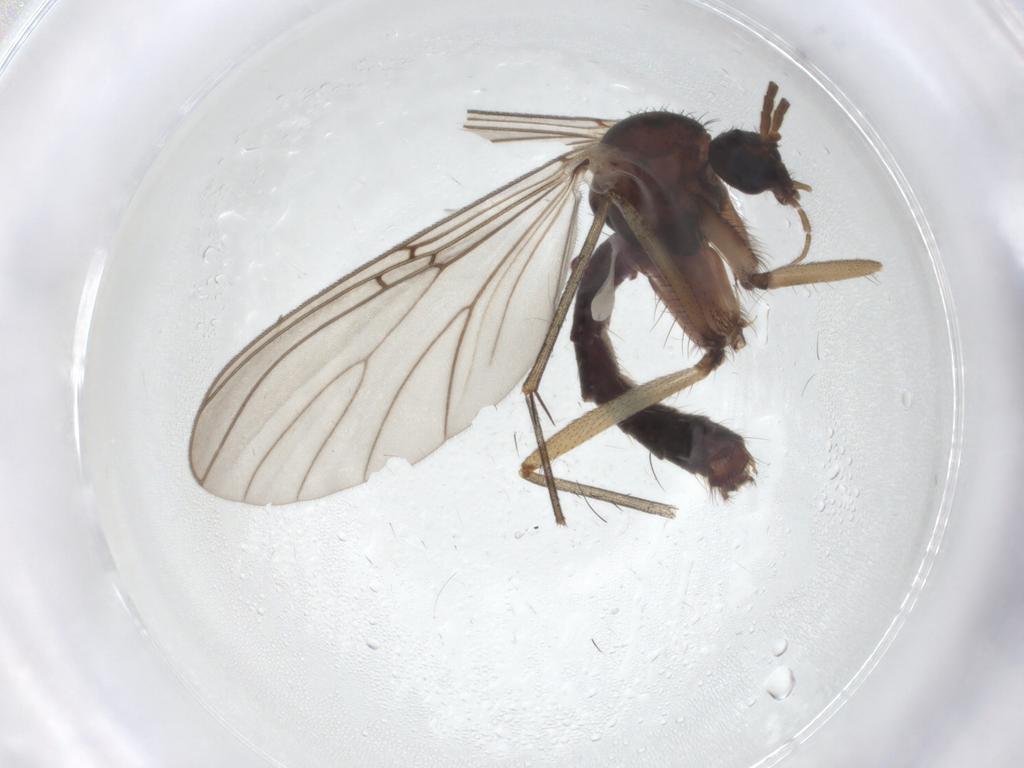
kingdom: Animalia
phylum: Arthropoda
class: Insecta
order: Diptera
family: Mycetophilidae
